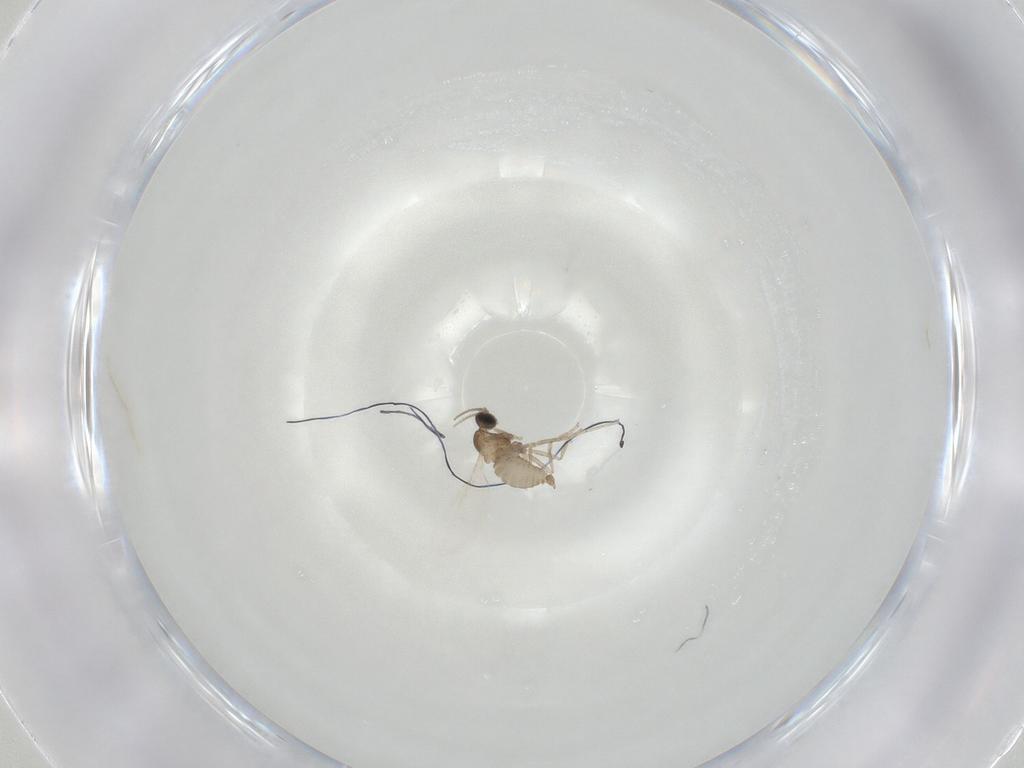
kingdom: Animalia
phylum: Arthropoda
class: Insecta
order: Diptera
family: Cecidomyiidae
